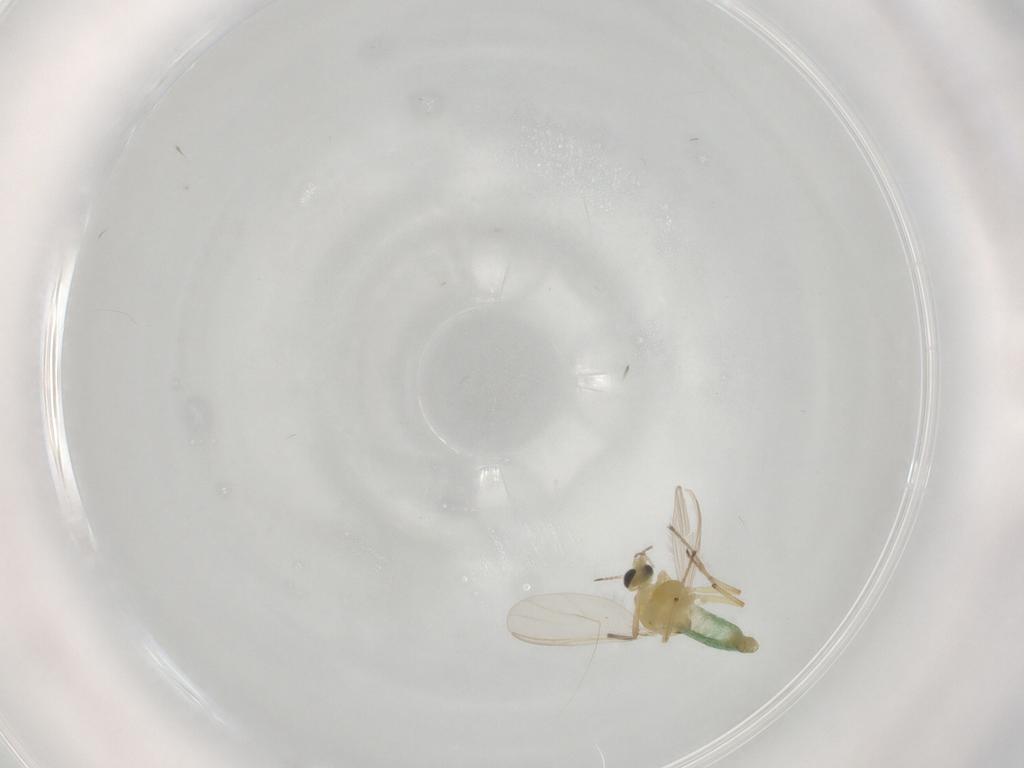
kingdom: Animalia
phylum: Arthropoda
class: Insecta
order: Diptera
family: Chironomidae
